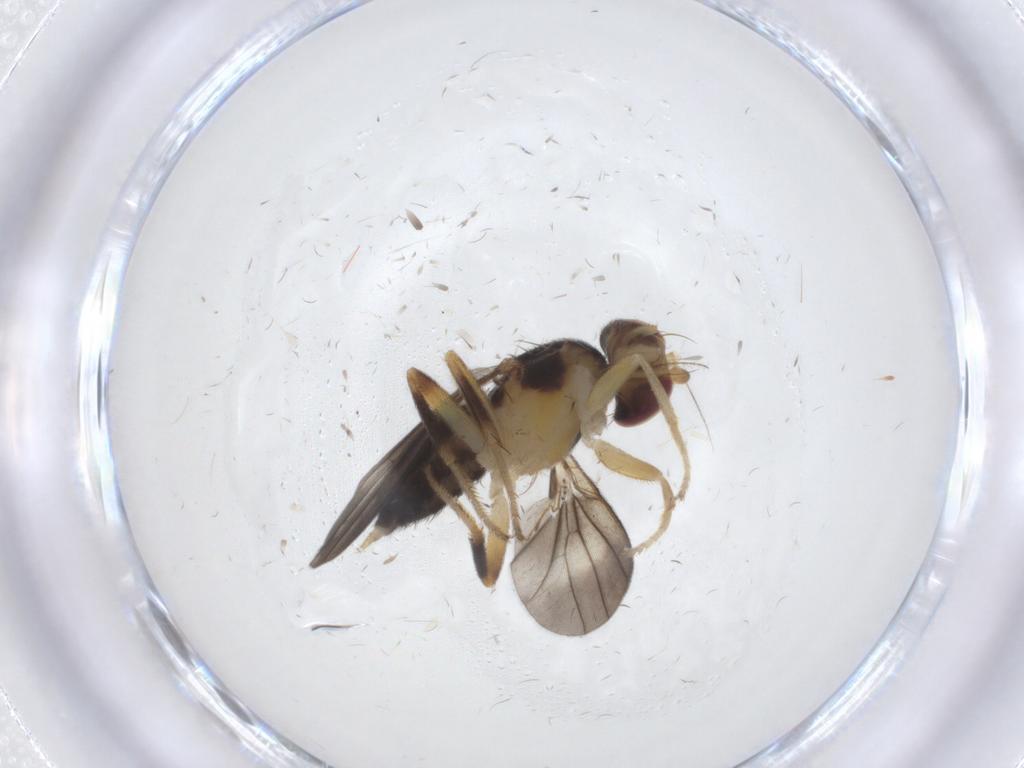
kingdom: Animalia
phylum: Arthropoda
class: Insecta
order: Diptera
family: Cecidomyiidae
